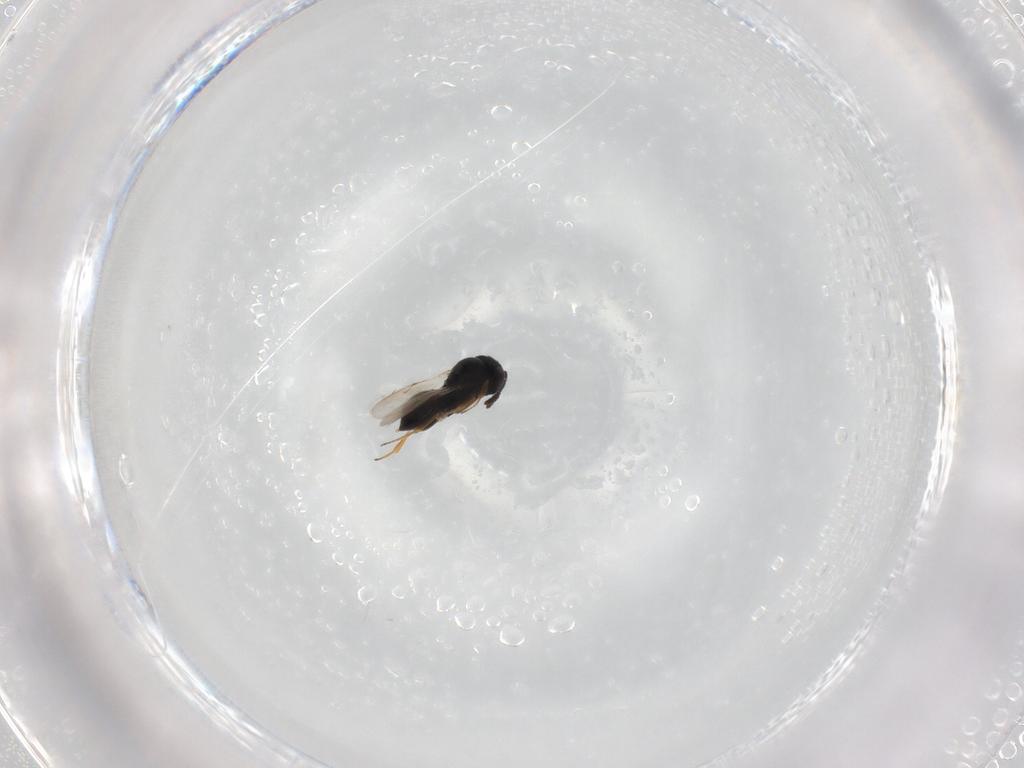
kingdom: Animalia
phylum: Arthropoda
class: Insecta
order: Hymenoptera
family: Scelionidae
